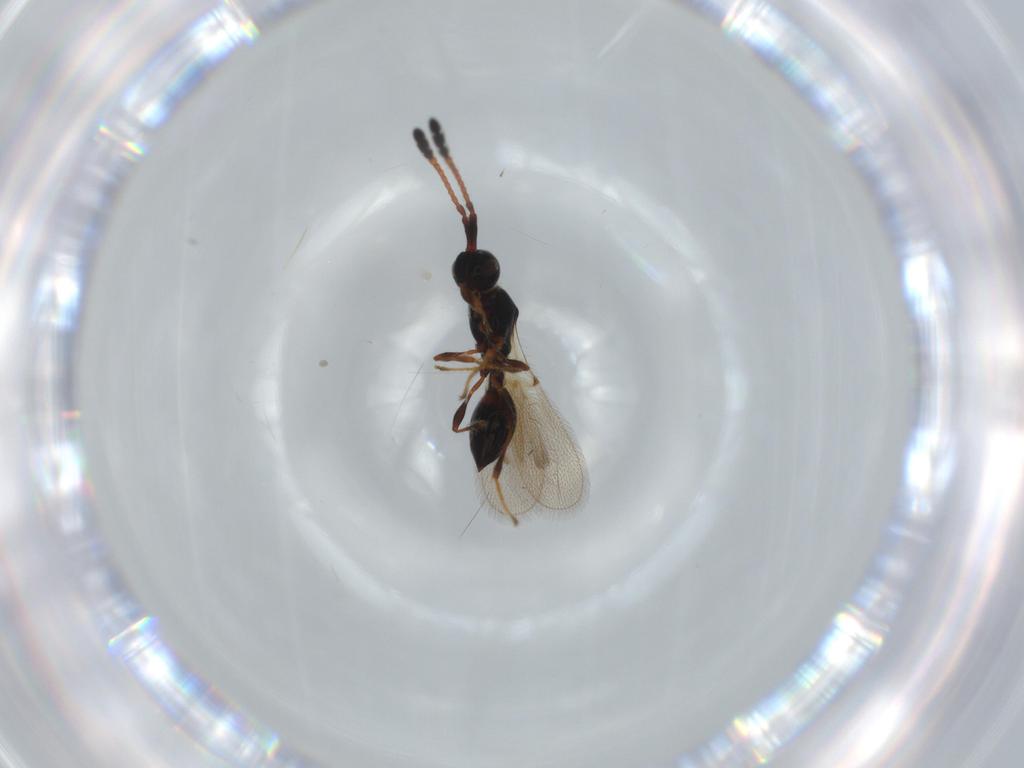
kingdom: Animalia
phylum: Arthropoda
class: Insecta
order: Hymenoptera
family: Diapriidae
